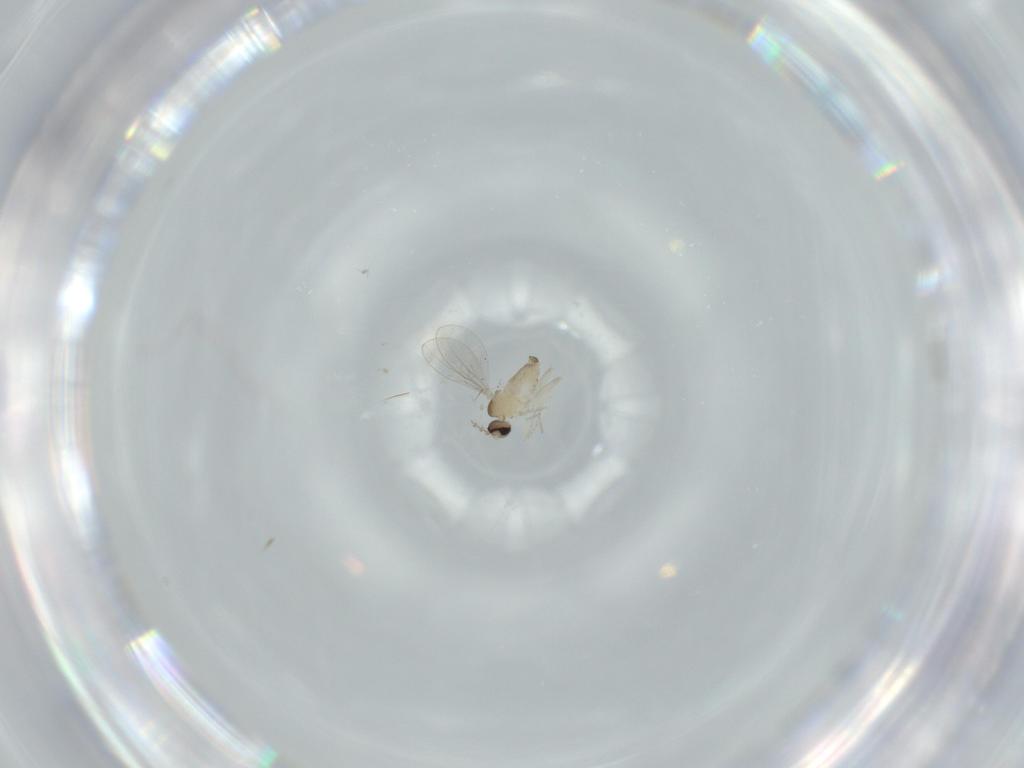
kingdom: Animalia
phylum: Arthropoda
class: Insecta
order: Diptera
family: Cecidomyiidae
